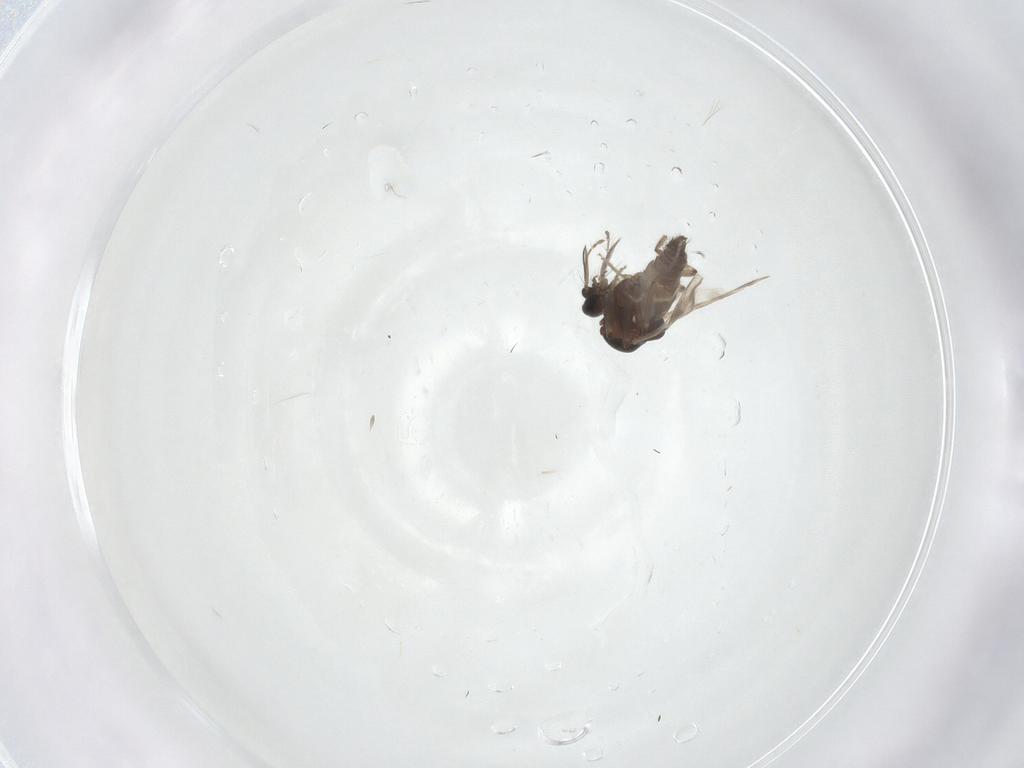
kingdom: Animalia
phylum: Arthropoda
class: Insecta
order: Diptera
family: Ceratopogonidae
